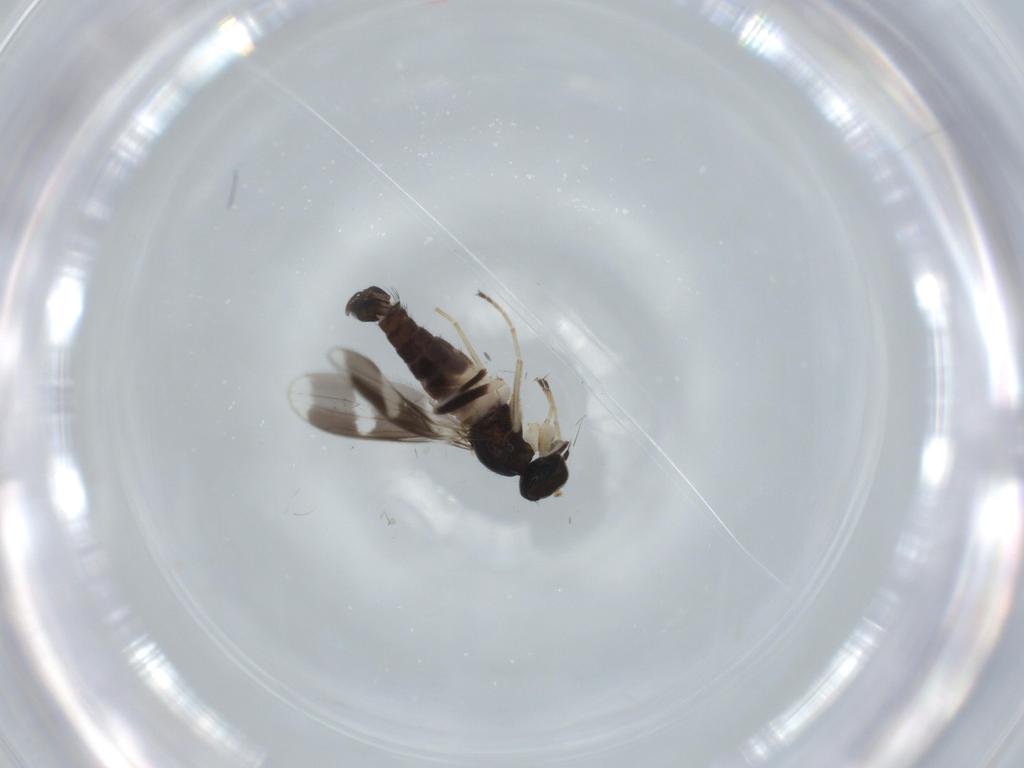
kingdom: Animalia
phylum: Arthropoda
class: Insecta
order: Diptera
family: Hybotidae
